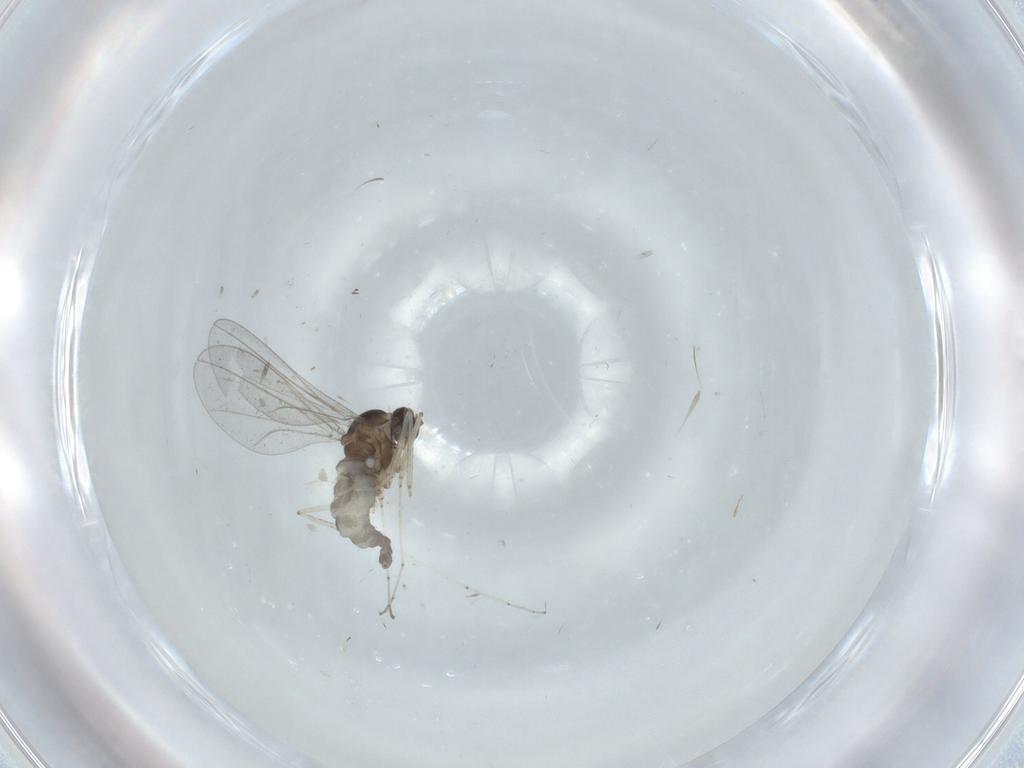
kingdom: Animalia
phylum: Arthropoda
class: Insecta
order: Diptera
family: Cecidomyiidae
